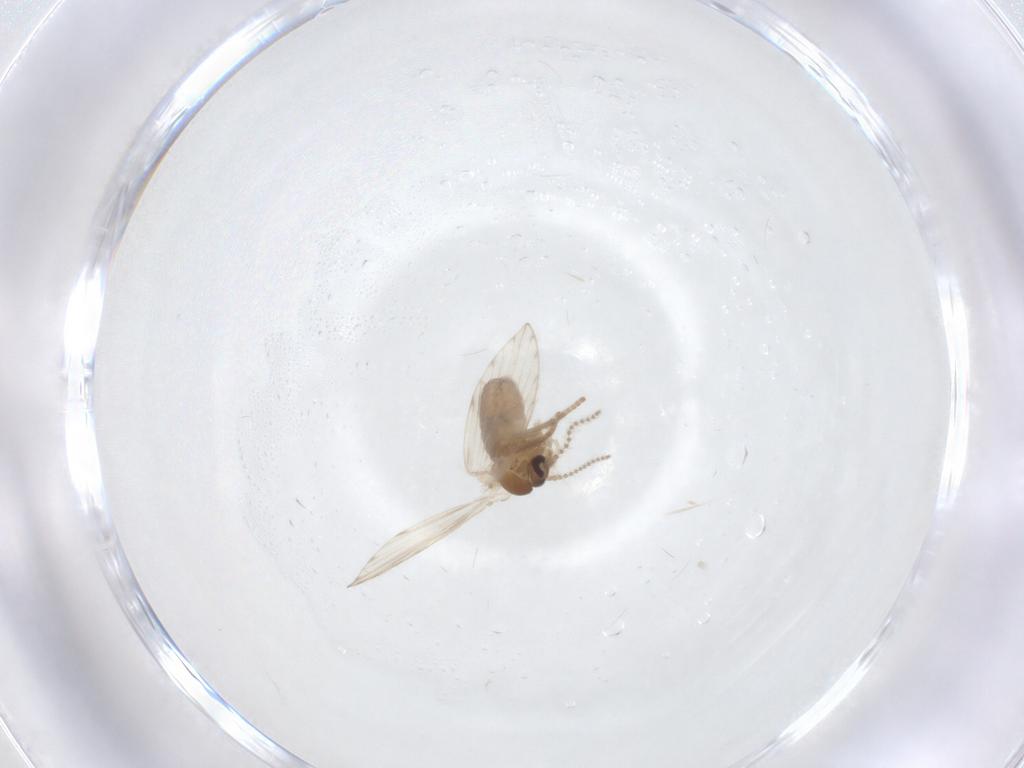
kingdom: Animalia
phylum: Arthropoda
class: Insecta
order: Diptera
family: Psychodidae
